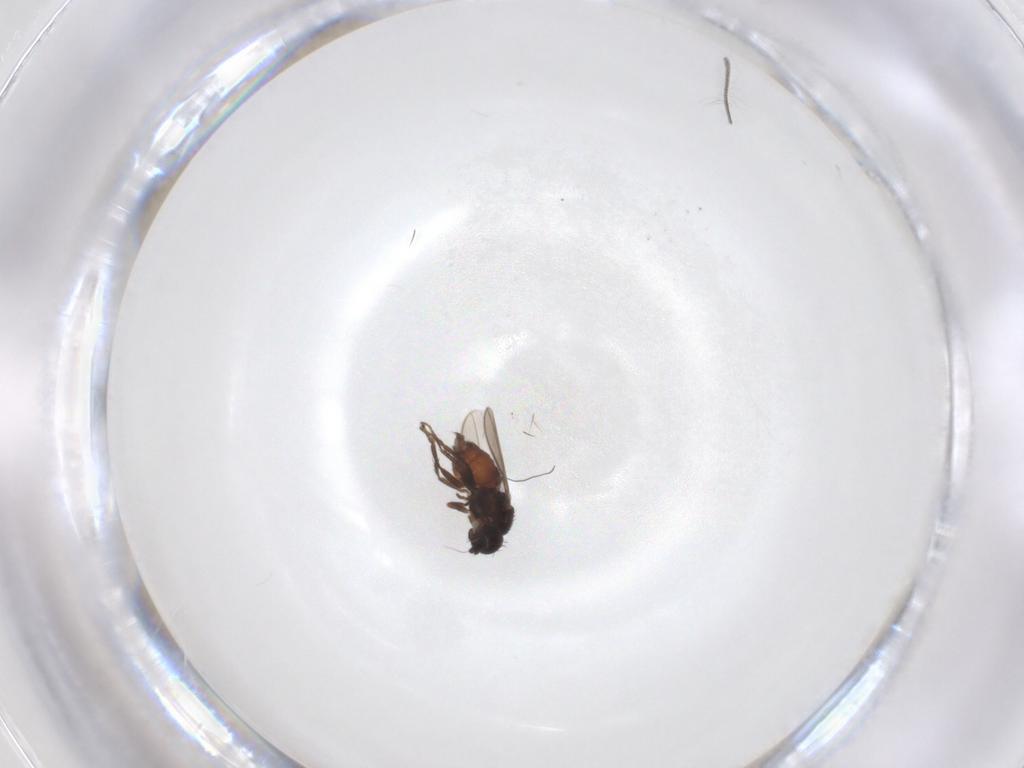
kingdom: Animalia
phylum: Arthropoda
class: Insecta
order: Diptera
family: Sphaeroceridae
